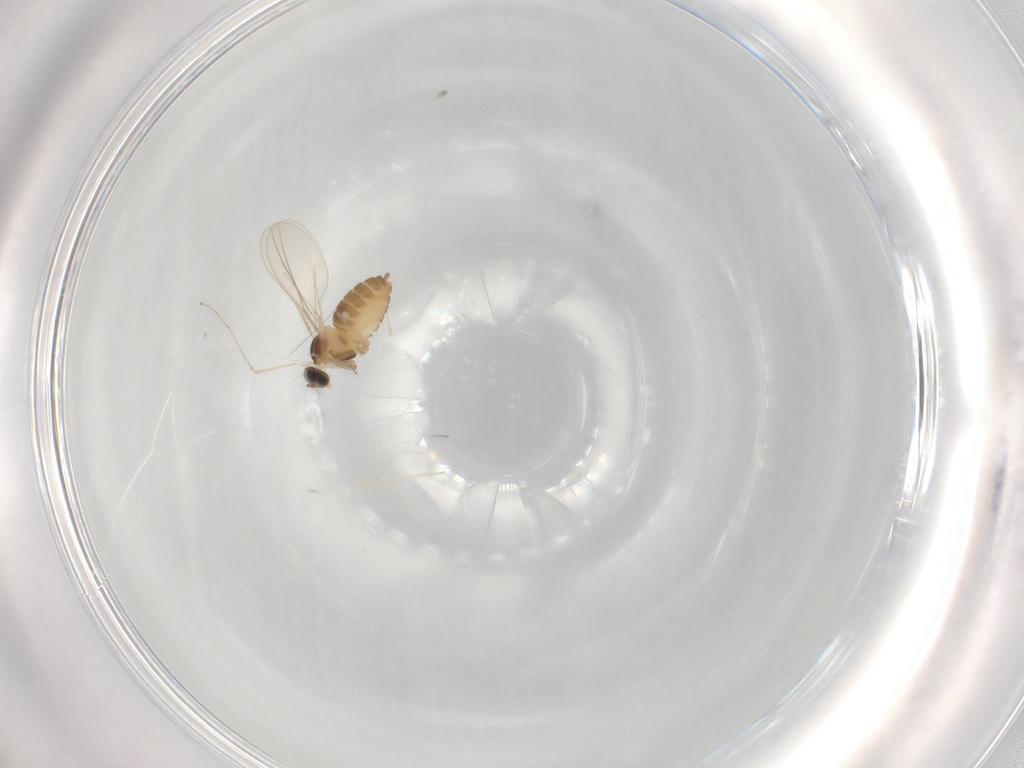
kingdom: Animalia
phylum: Arthropoda
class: Insecta
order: Diptera
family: Cecidomyiidae
